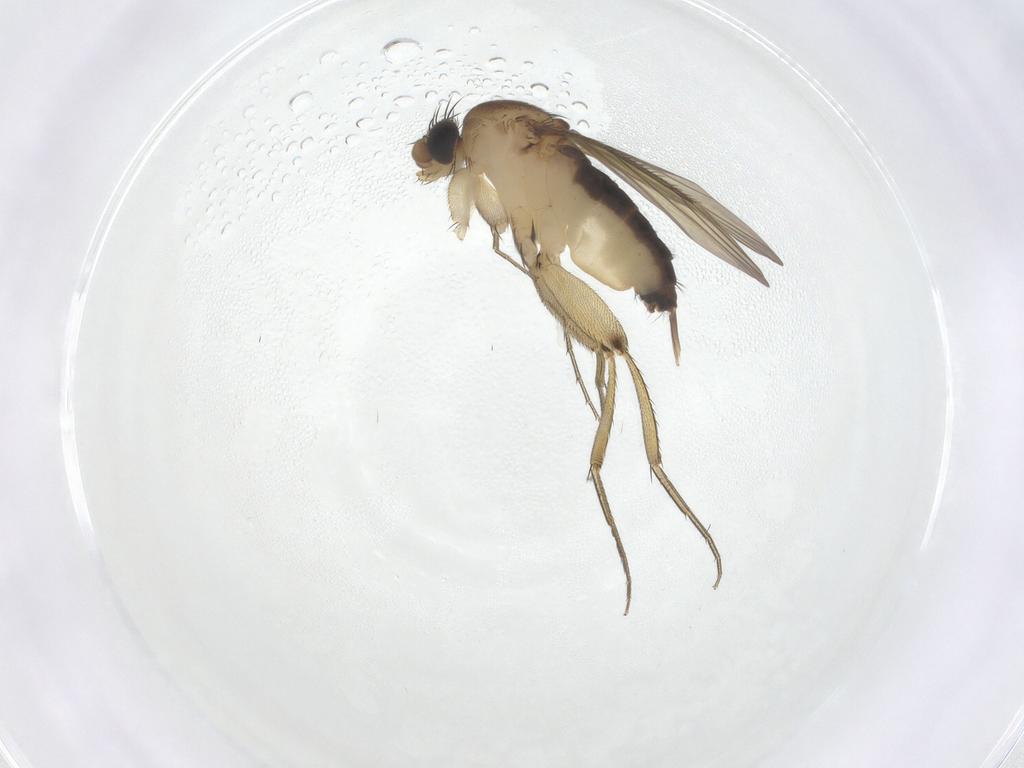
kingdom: Animalia
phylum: Arthropoda
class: Insecta
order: Diptera
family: Phoridae
